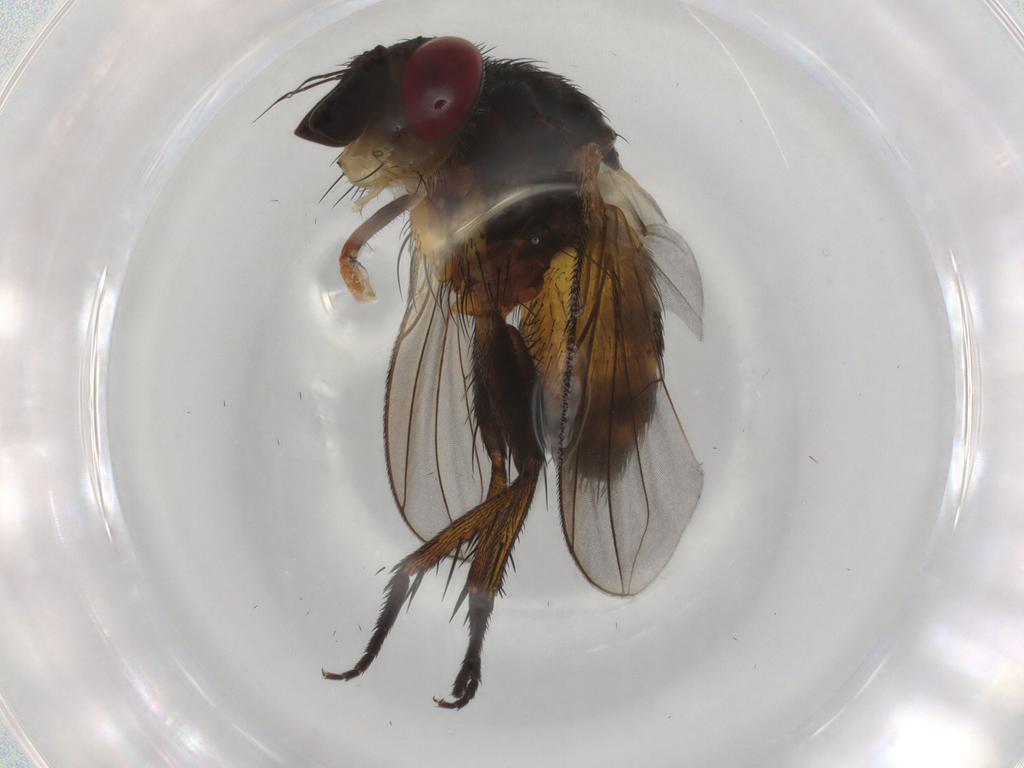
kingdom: Animalia
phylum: Arthropoda
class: Insecta
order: Diptera
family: Tachinidae
